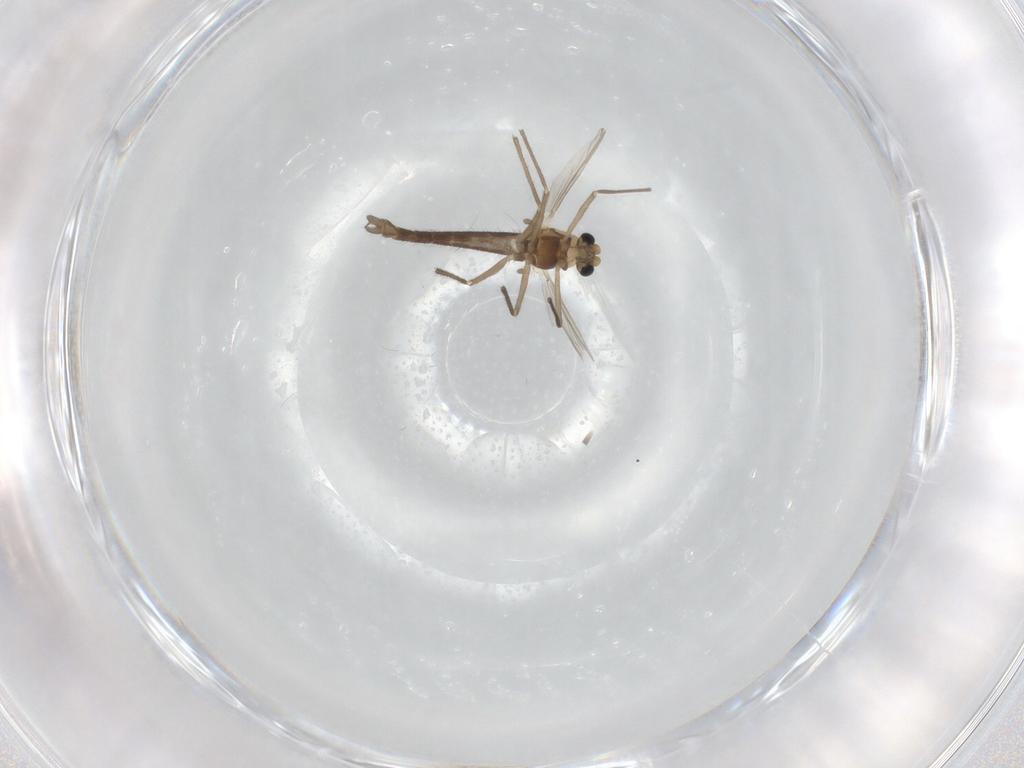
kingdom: Animalia
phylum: Arthropoda
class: Insecta
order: Diptera
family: Chironomidae
